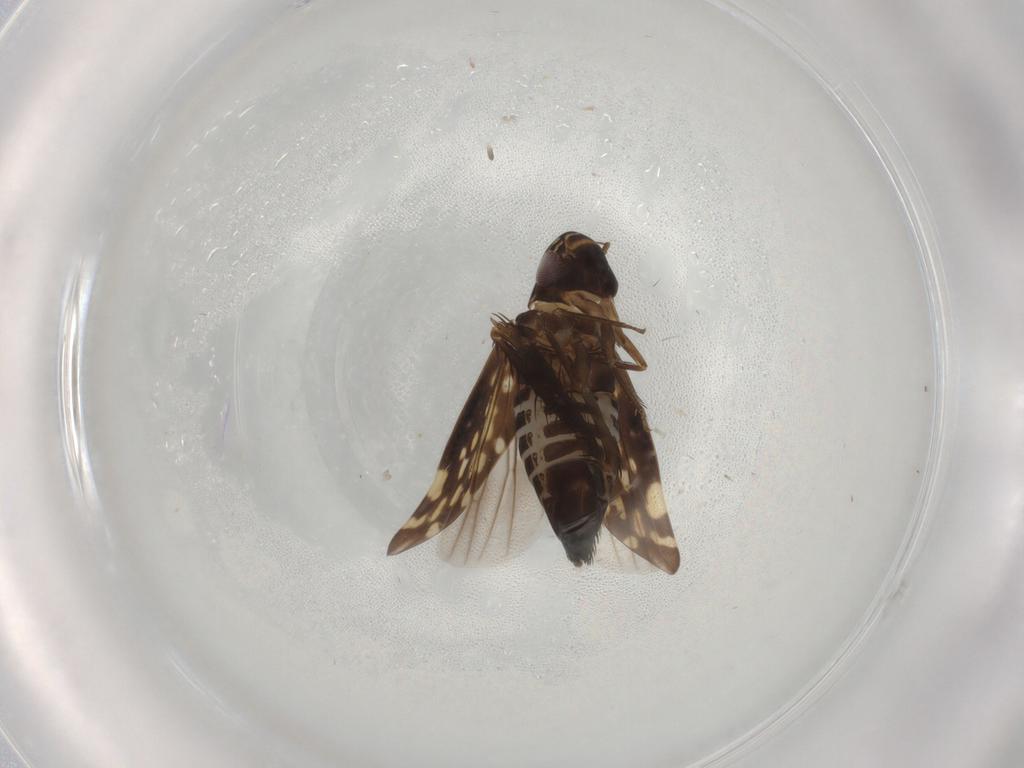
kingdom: Animalia
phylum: Arthropoda
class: Insecta
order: Hemiptera
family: Cicadellidae
